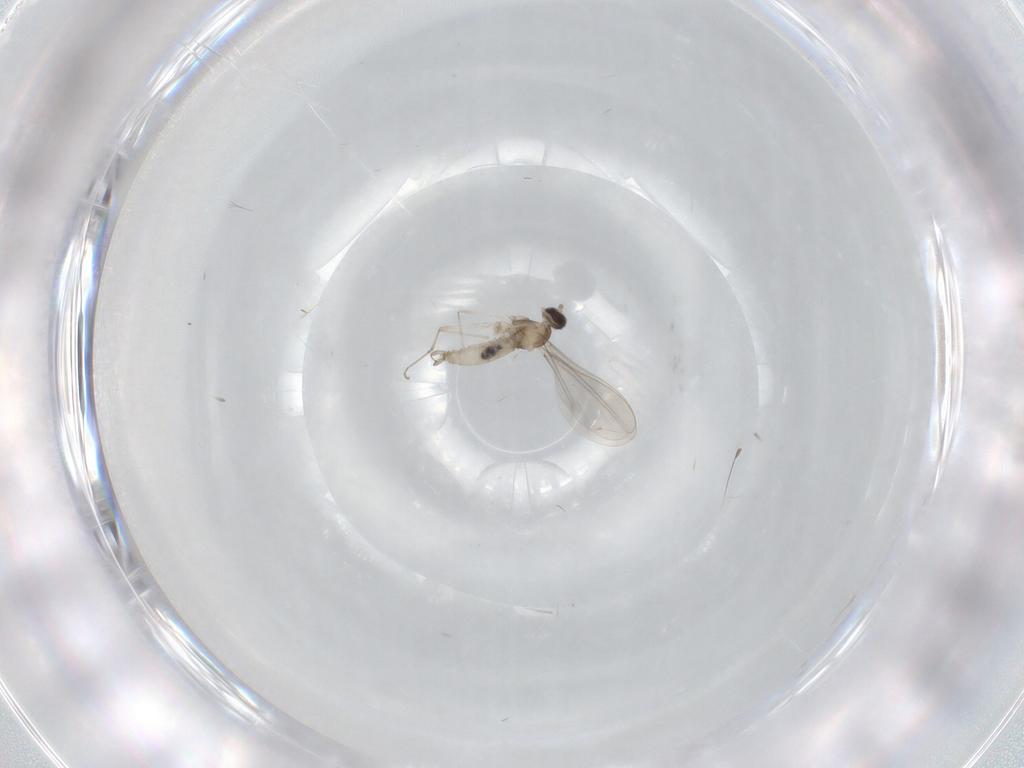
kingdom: Animalia
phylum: Arthropoda
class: Insecta
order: Diptera
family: Cecidomyiidae
